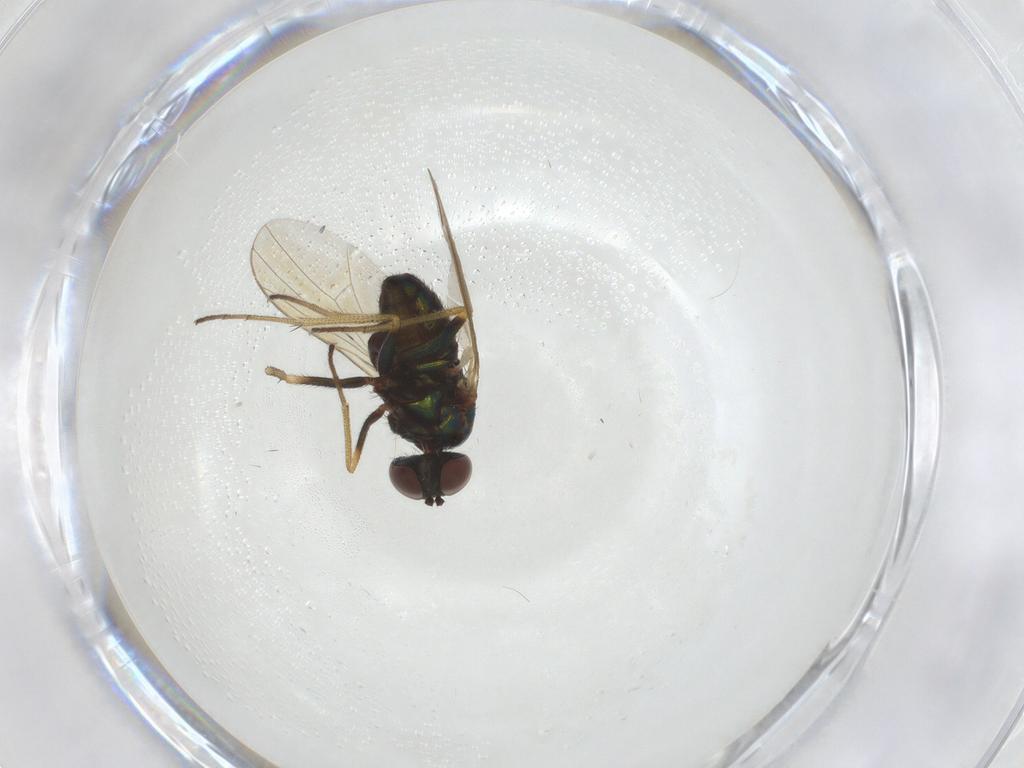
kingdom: Animalia
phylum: Arthropoda
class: Insecta
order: Diptera
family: Dolichopodidae
